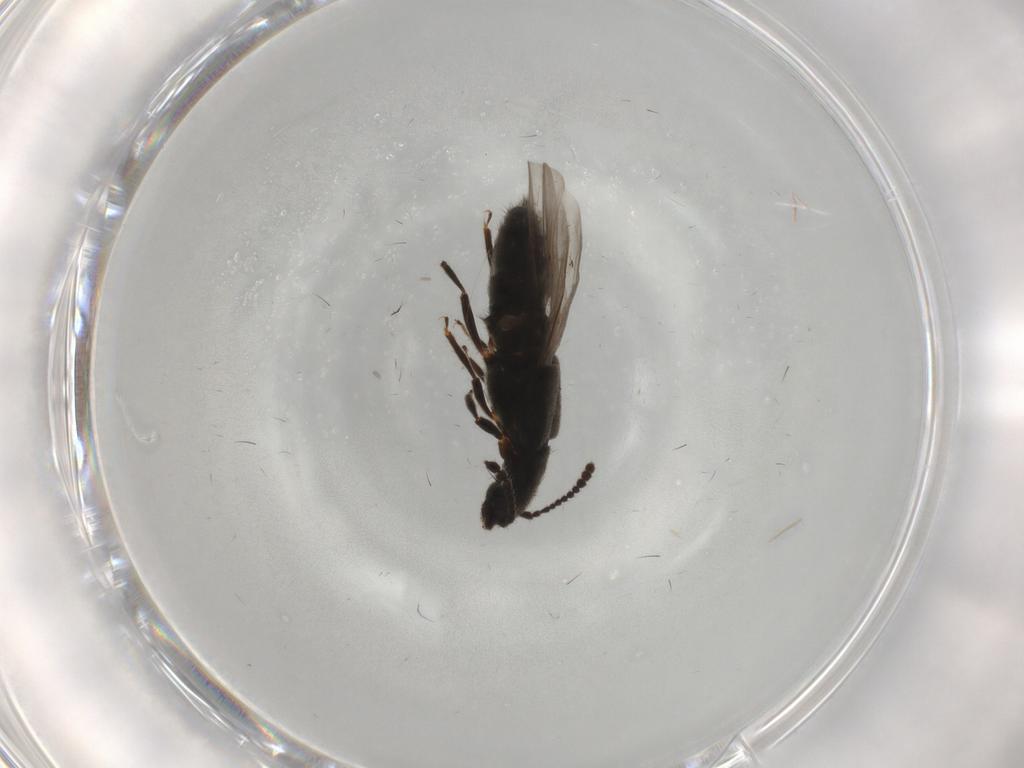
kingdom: Animalia
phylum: Arthropoda
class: Insecta
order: Coleoptera
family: Staphylinidae
